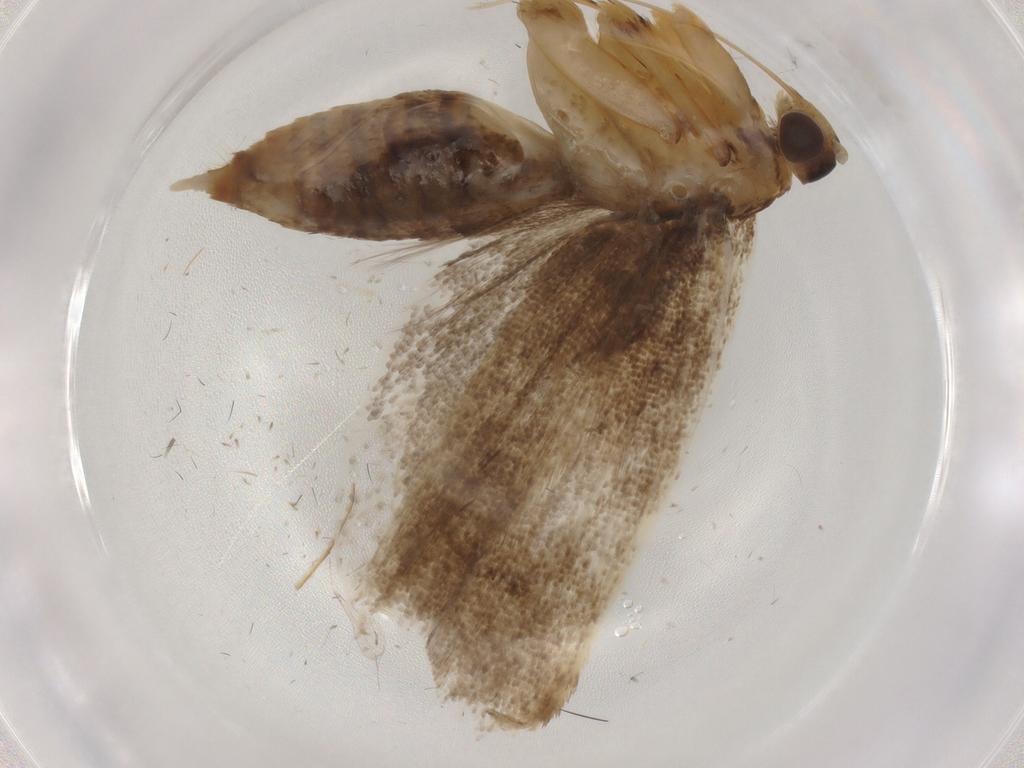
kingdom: Animalia
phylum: Arthropoda
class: Insecta
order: Lepidoptera
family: Lecithoceridae
